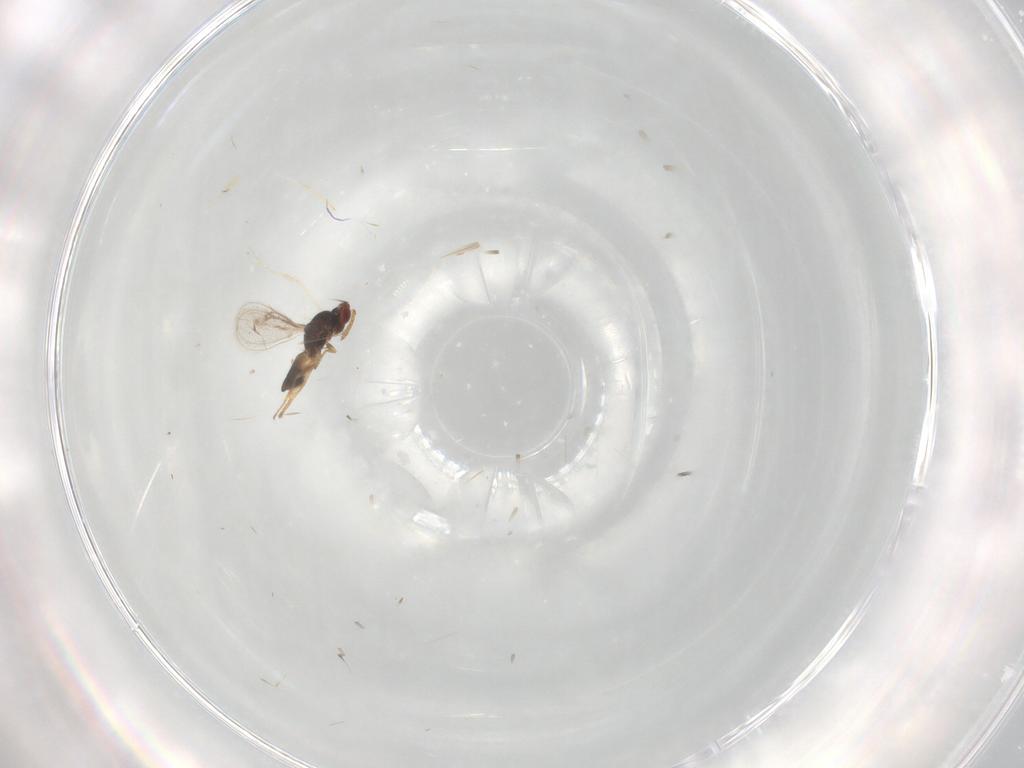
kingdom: Animalia
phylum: Arthropoda
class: Insecta
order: Hymenoptera
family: Eulophidae
